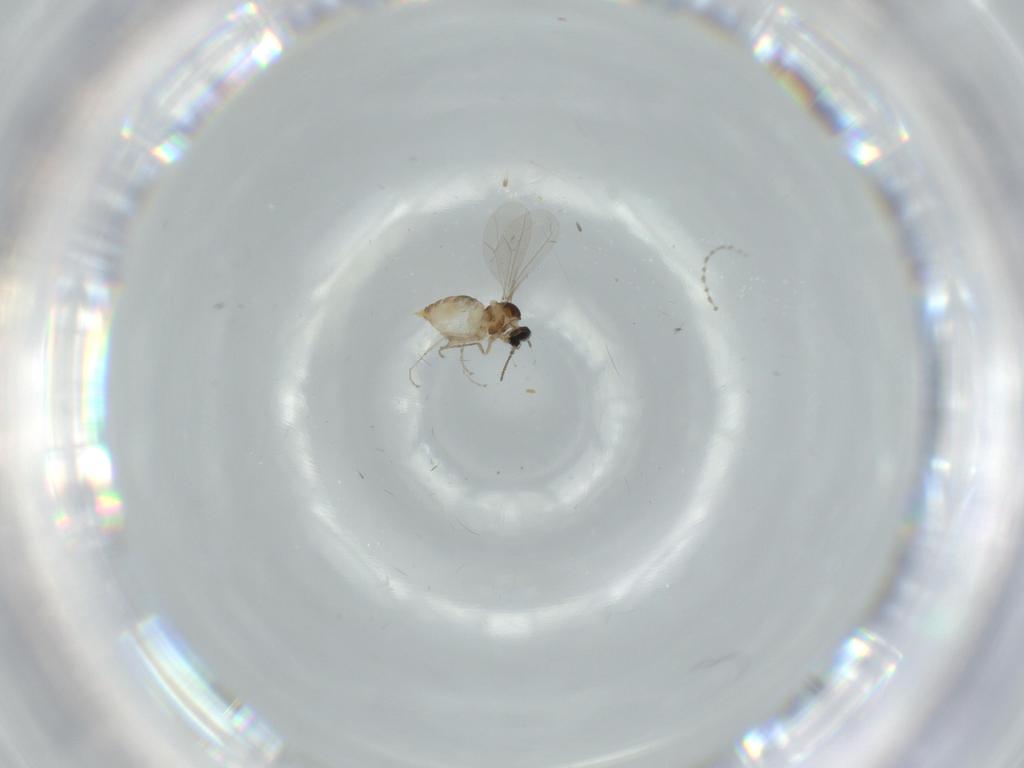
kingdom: Animalia
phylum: Arthropoda
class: Insecta
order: Diptera
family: Cecidomyiidae
